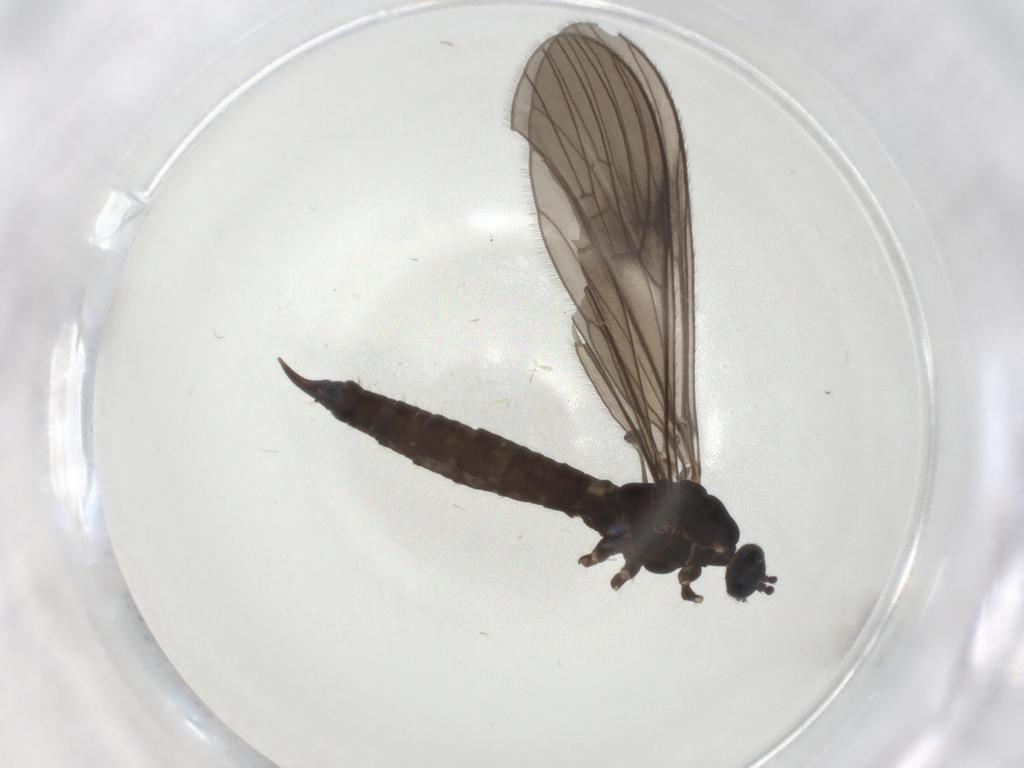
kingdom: Animalia
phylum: Arthropoda
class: Insecta
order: Diptera
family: Limoniidae
